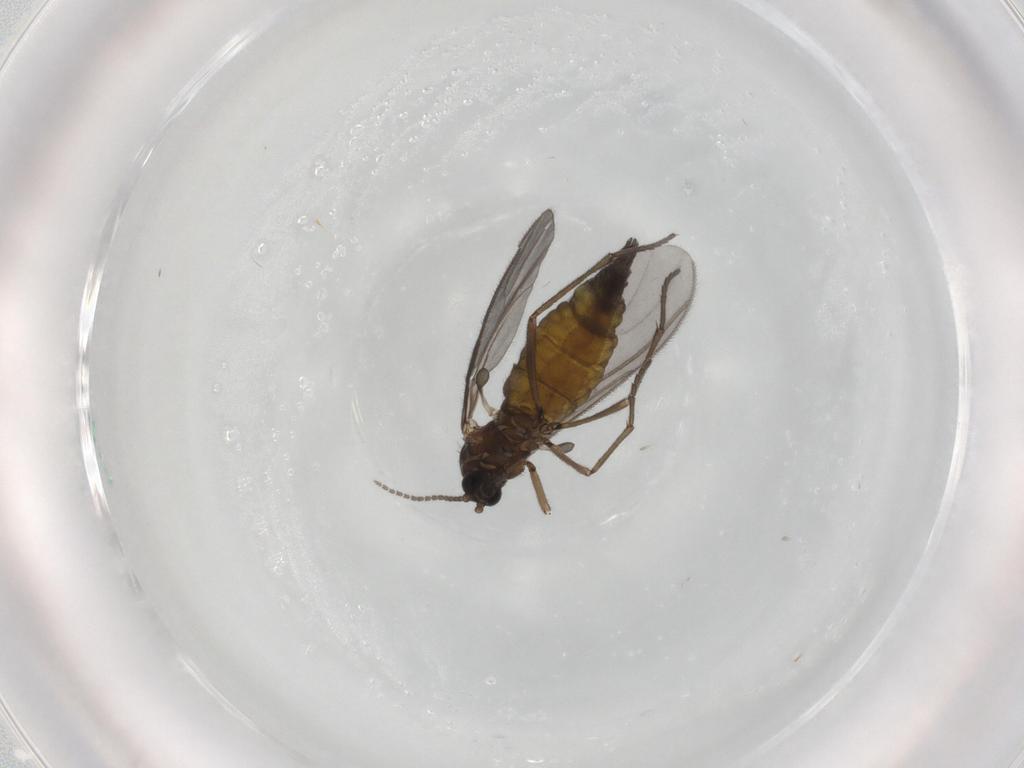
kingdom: Animalia
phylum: Arthropoda
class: Insecta
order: Diptera
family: Sciaridae
